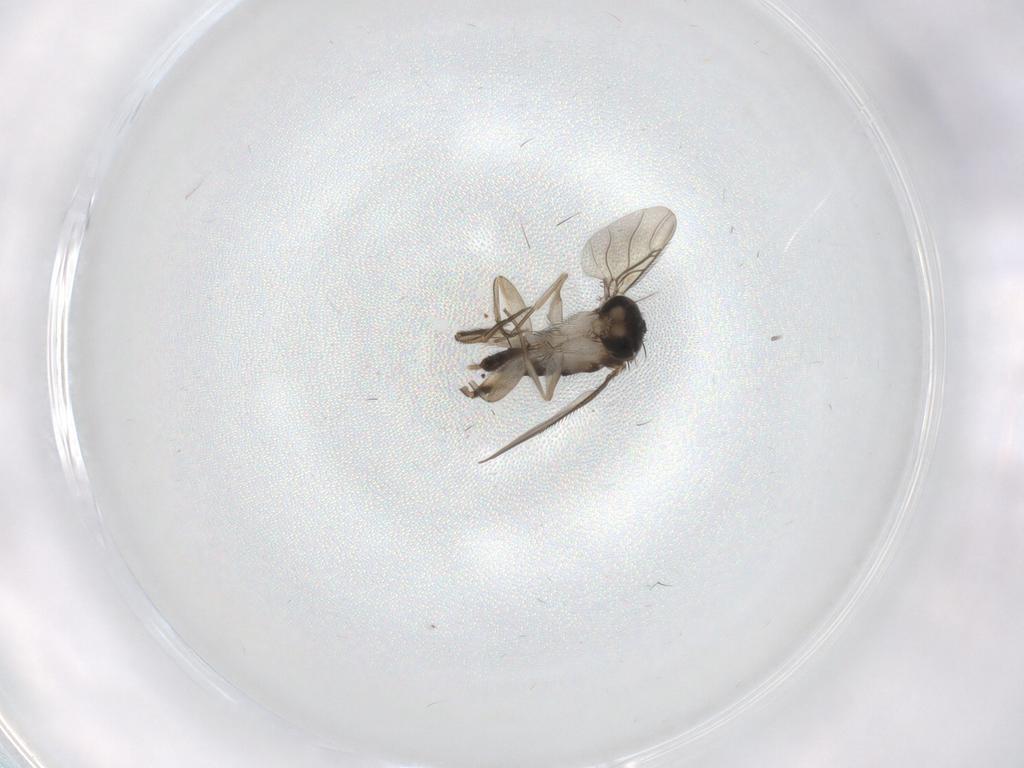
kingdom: Animalia
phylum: Arthropoda
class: Insecta
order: Diptera
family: Phoridae
